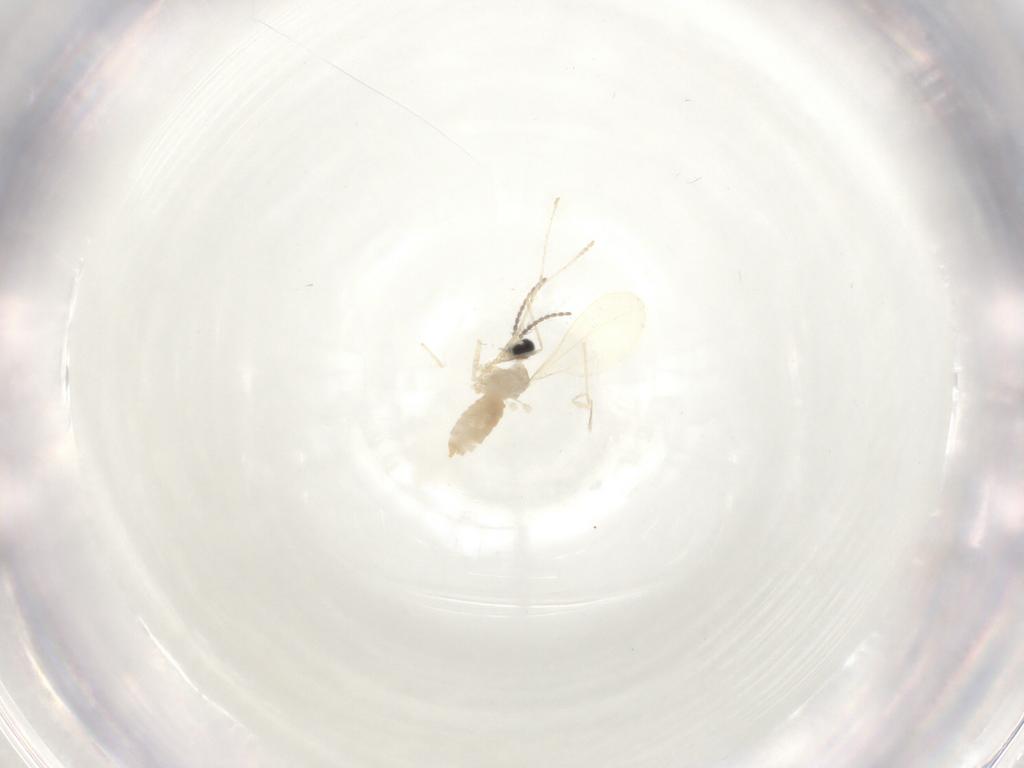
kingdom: Animalia
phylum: Arthropoda
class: Insecta
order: Diptera
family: Cecidomyiidae
